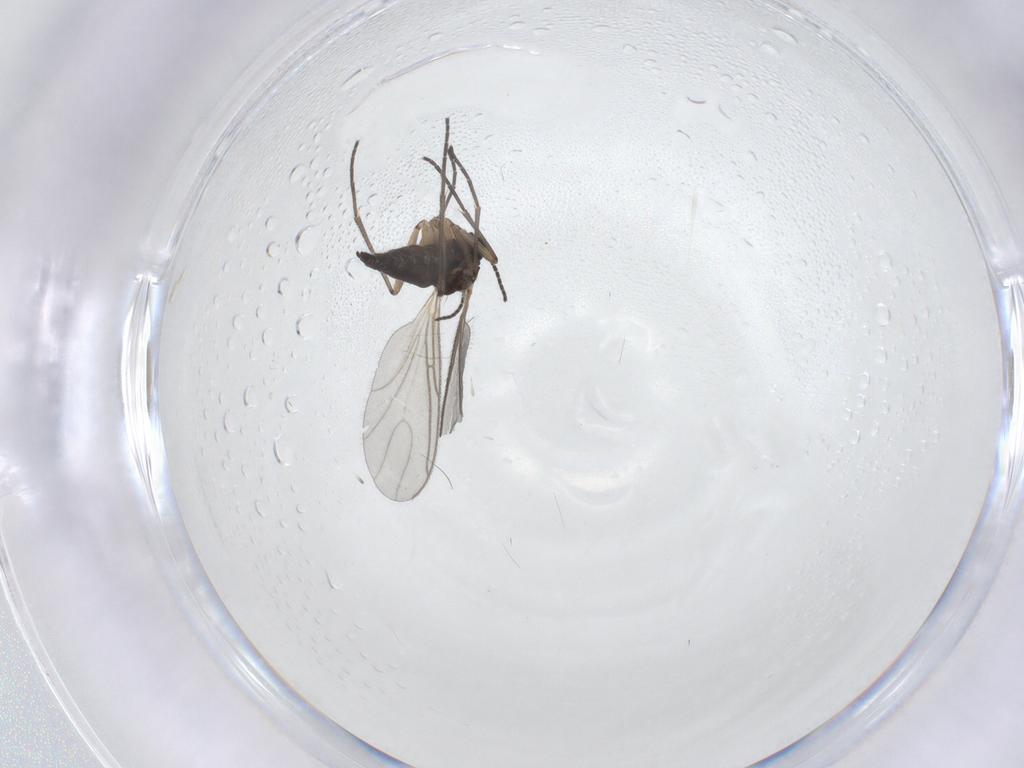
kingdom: Animalia
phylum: Arthropoda
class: Insecta
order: Diptera
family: Sciaridae
